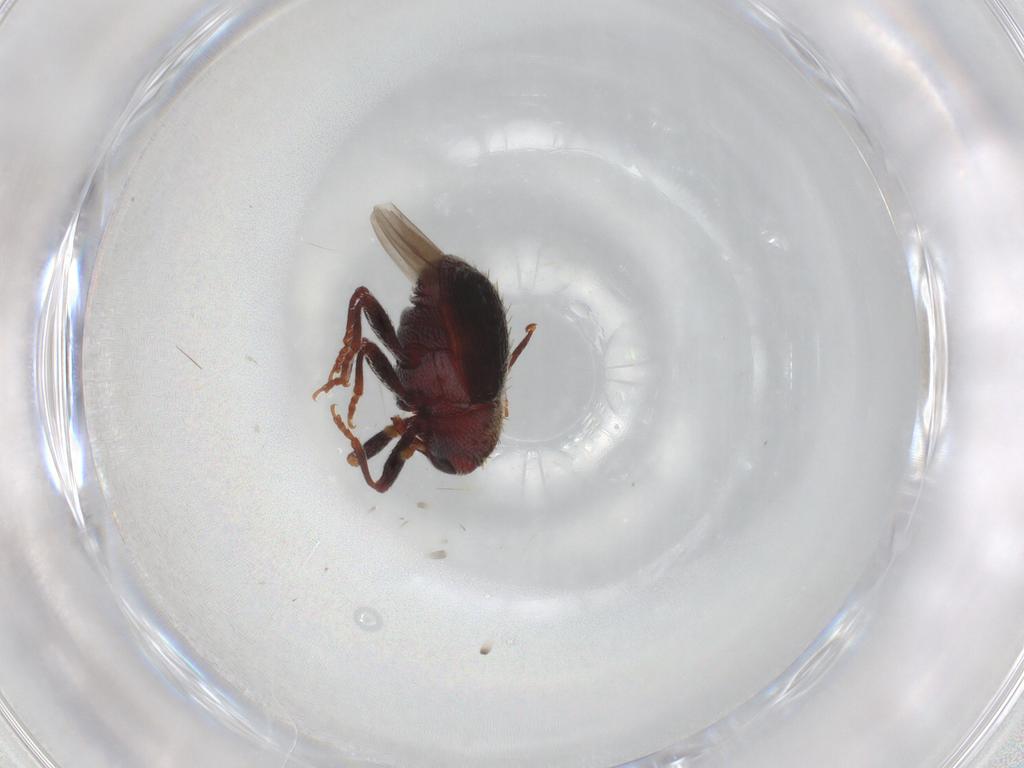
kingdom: Animalia
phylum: Arthropoda
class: Insecta
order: Coleoptera
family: Curculionidae
